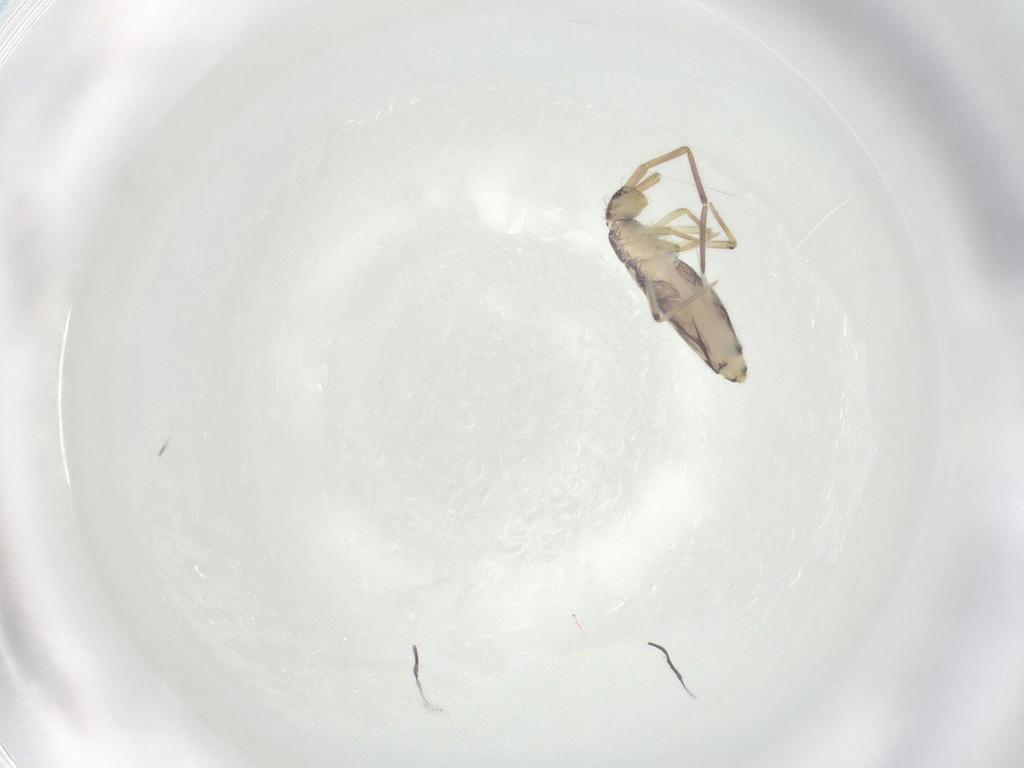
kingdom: Animalia
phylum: Arthropoda
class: Collembola
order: Entomobryomorpha
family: Entomobryidae
